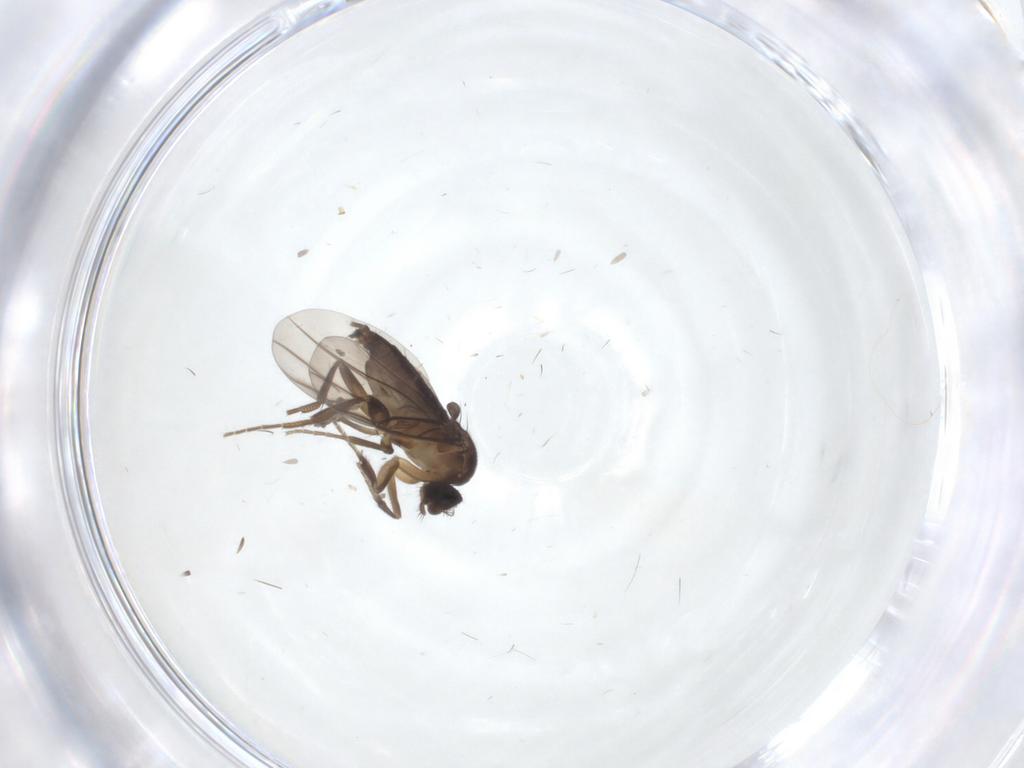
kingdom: Animalia
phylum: Arthropoda
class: Insecta
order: Diptera
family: Phoridae
